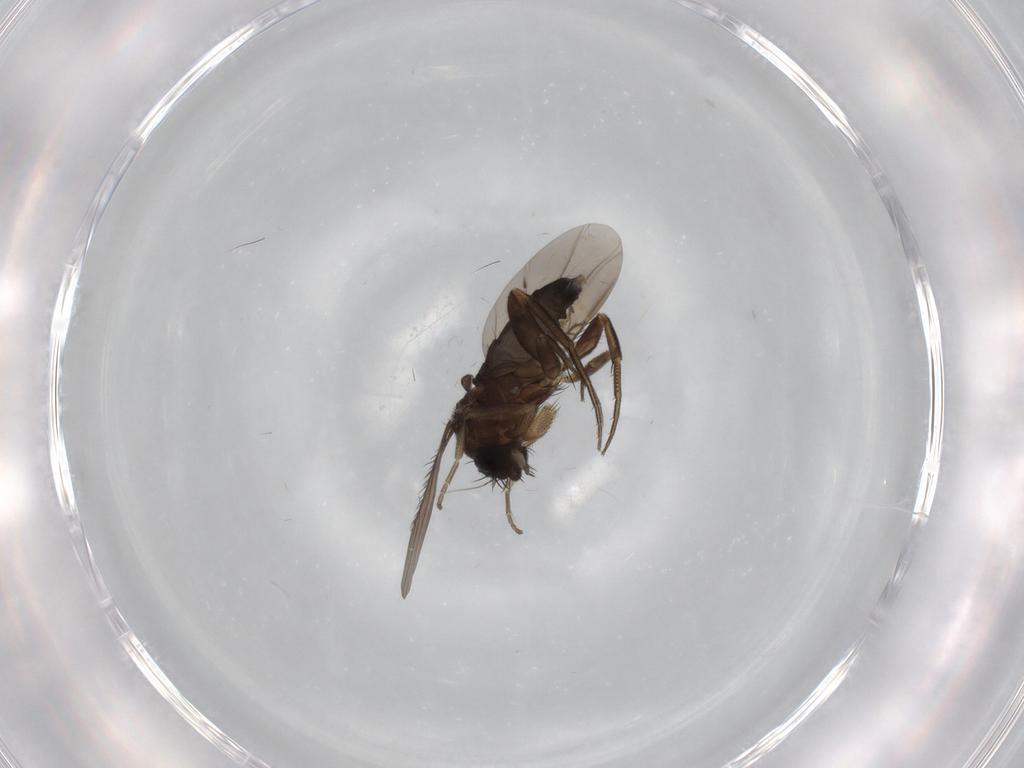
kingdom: Animalia
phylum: Arthropoda
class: Insecta
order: Diptera
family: Phoridae
